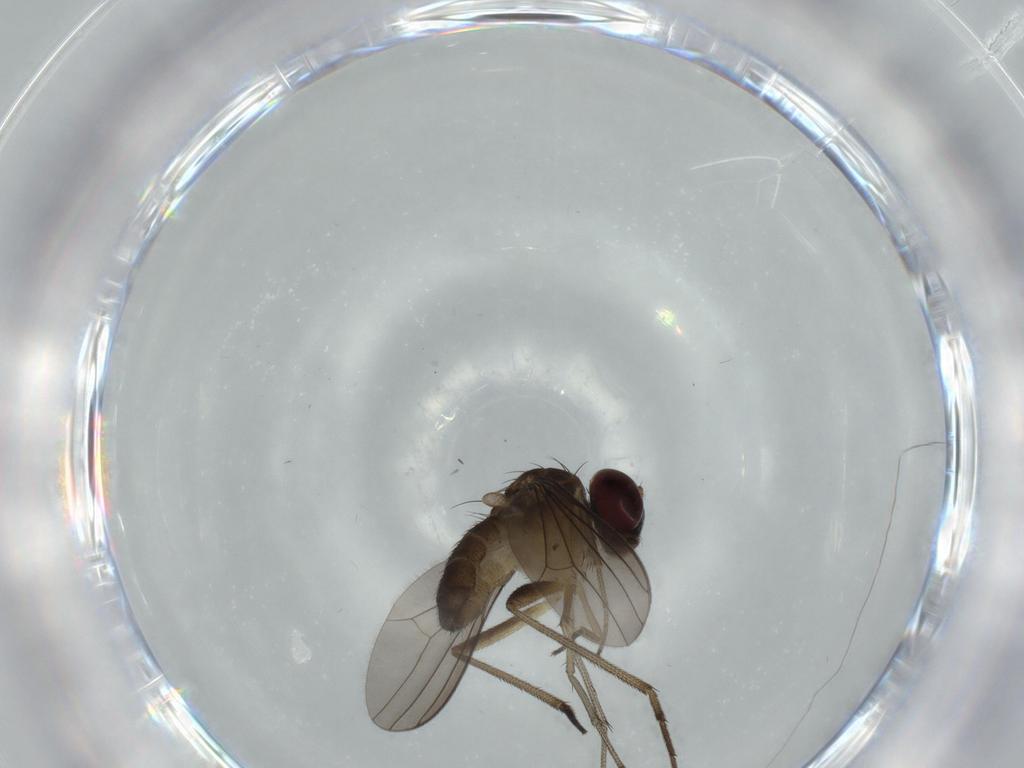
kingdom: Animalia
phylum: Arthropoda
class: Insecta
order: Diptera
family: Dolichopodidae
